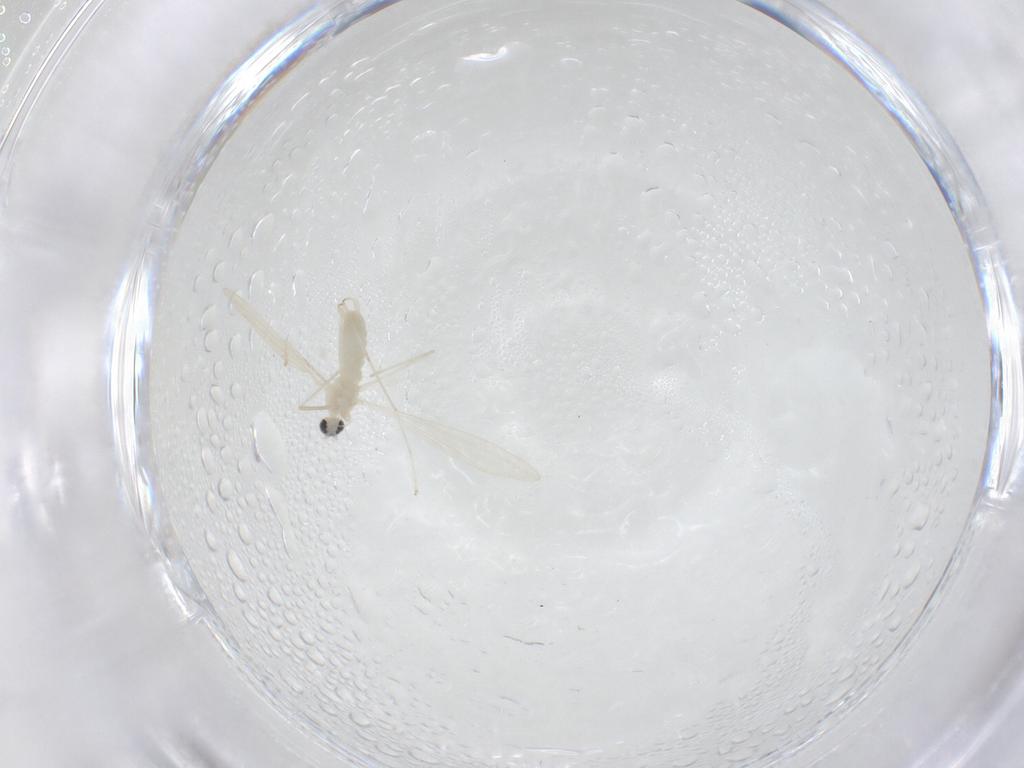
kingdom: Animalia
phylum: Arthropoda
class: Insecta
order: Diptera
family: Cecidomyiidae
